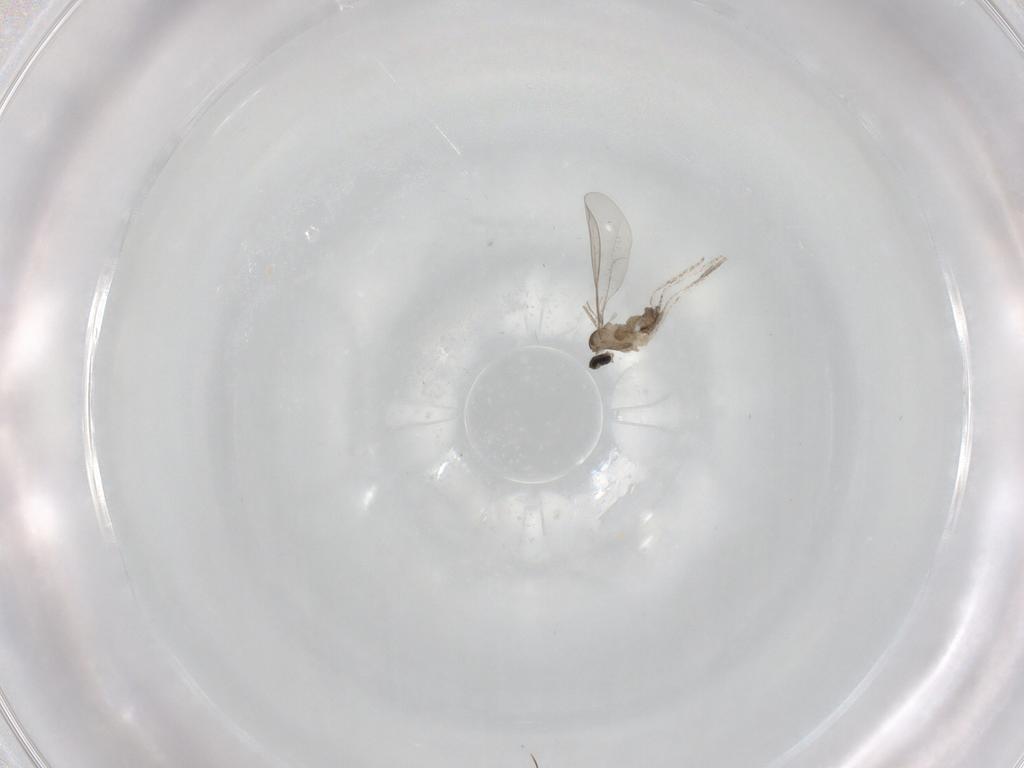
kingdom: Animalia
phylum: Arthropoda
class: Insecta
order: Diptera
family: Cecidomyiidae
